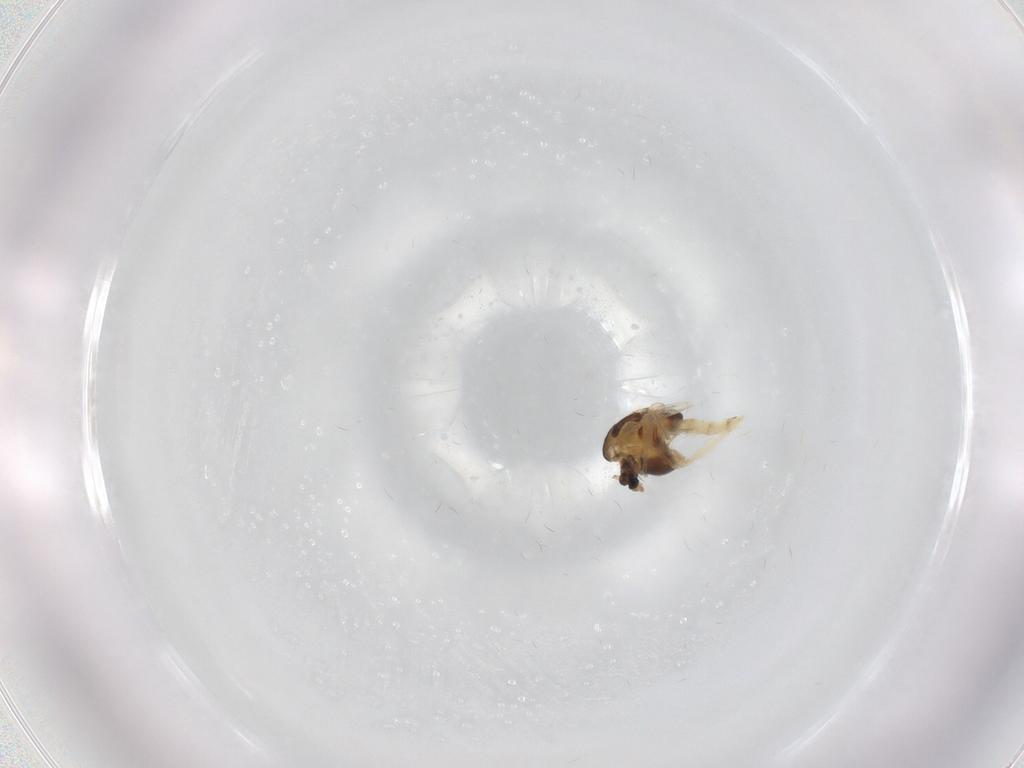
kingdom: Animalia
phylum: Arthropoda
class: Insecta
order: Diptera
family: Chironomidae
